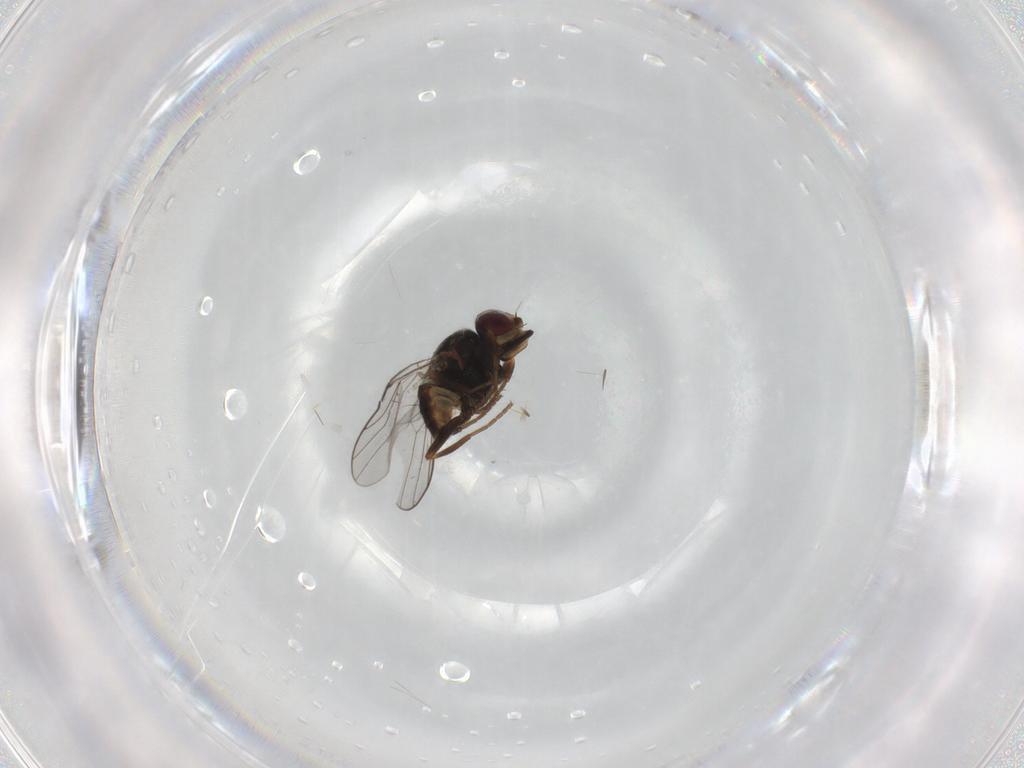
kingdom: Animalia
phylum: Arthropoda
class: Insecta
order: Diptera
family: Chloropidae
